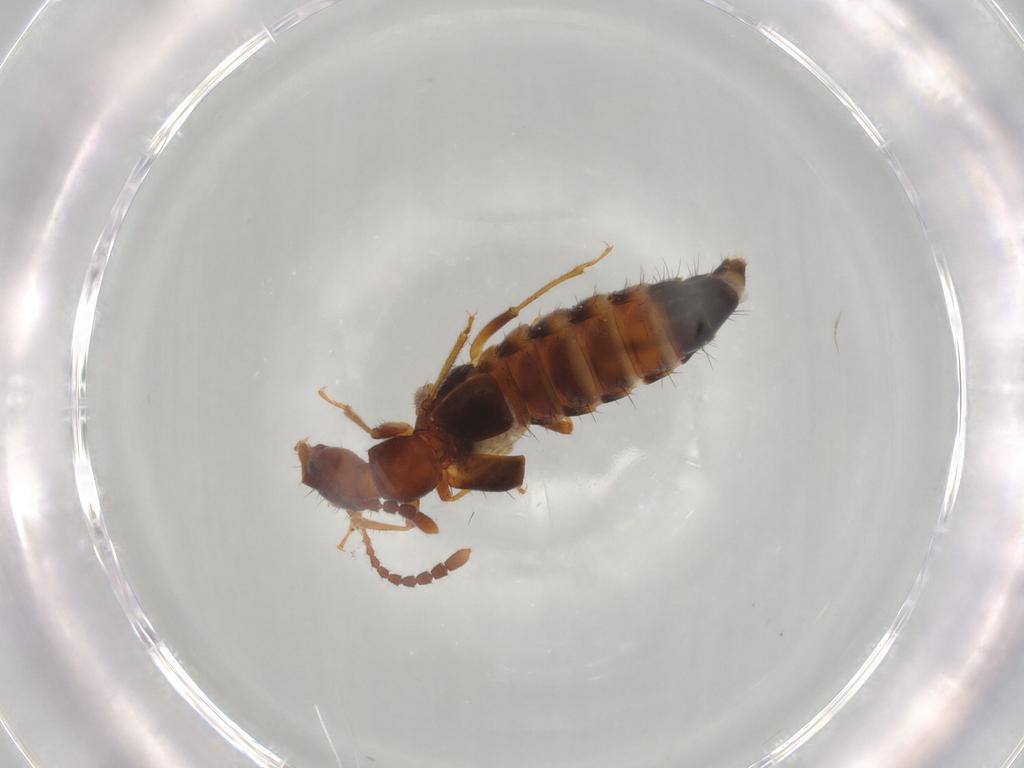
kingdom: Animalia
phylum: Arthropoda
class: Insecta
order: Coleoptera
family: Staphylinidae
